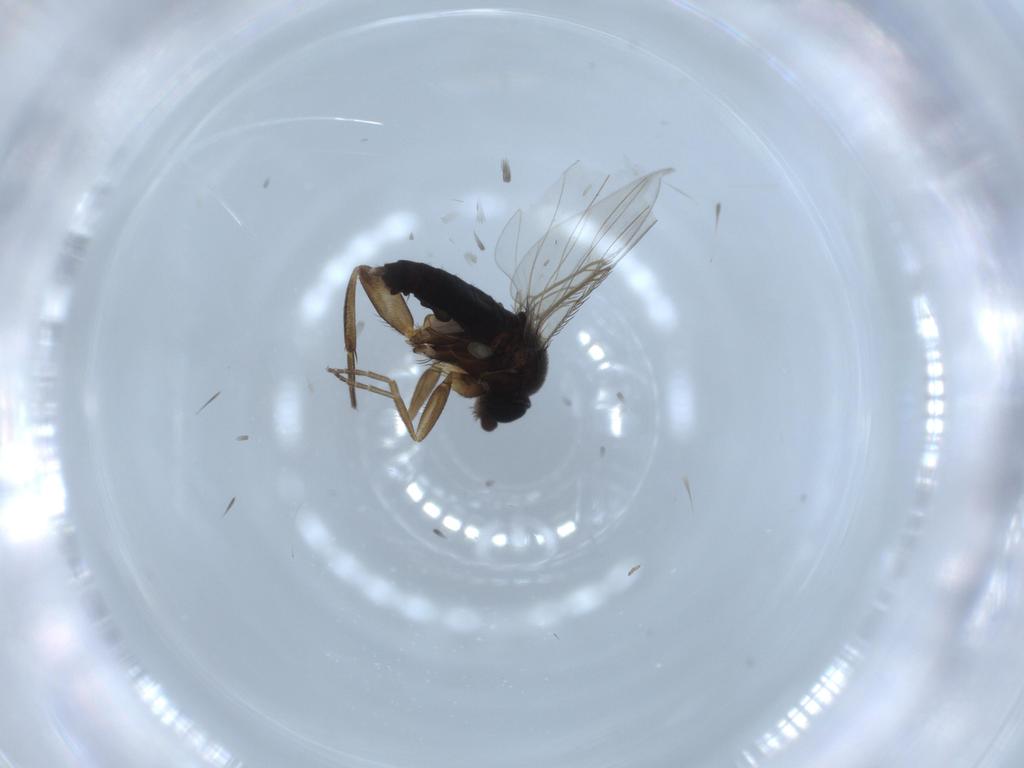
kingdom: Animalia
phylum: Arthropoda
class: Insecta
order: Diptera
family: Phoridae
